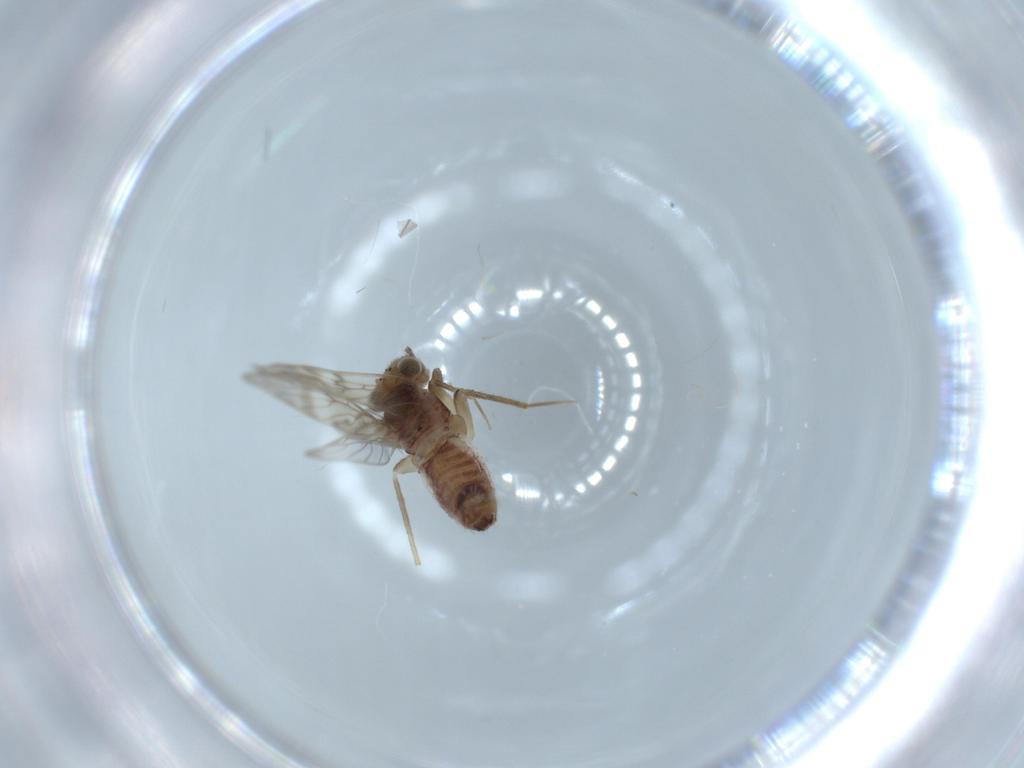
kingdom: Animalia
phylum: Arthropoda
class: Insecta
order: Psocodea
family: Lepidopsocidae
